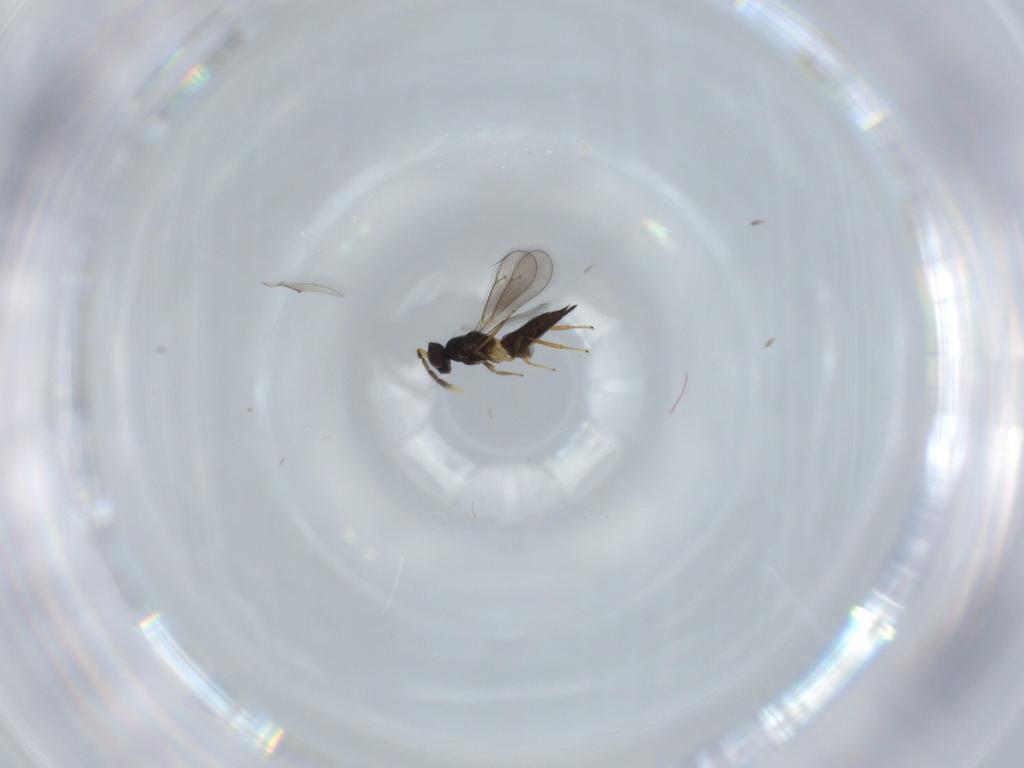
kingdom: Animalia
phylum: Arthropoda
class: Insecta
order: Hymenoptera
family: Eulophidae
